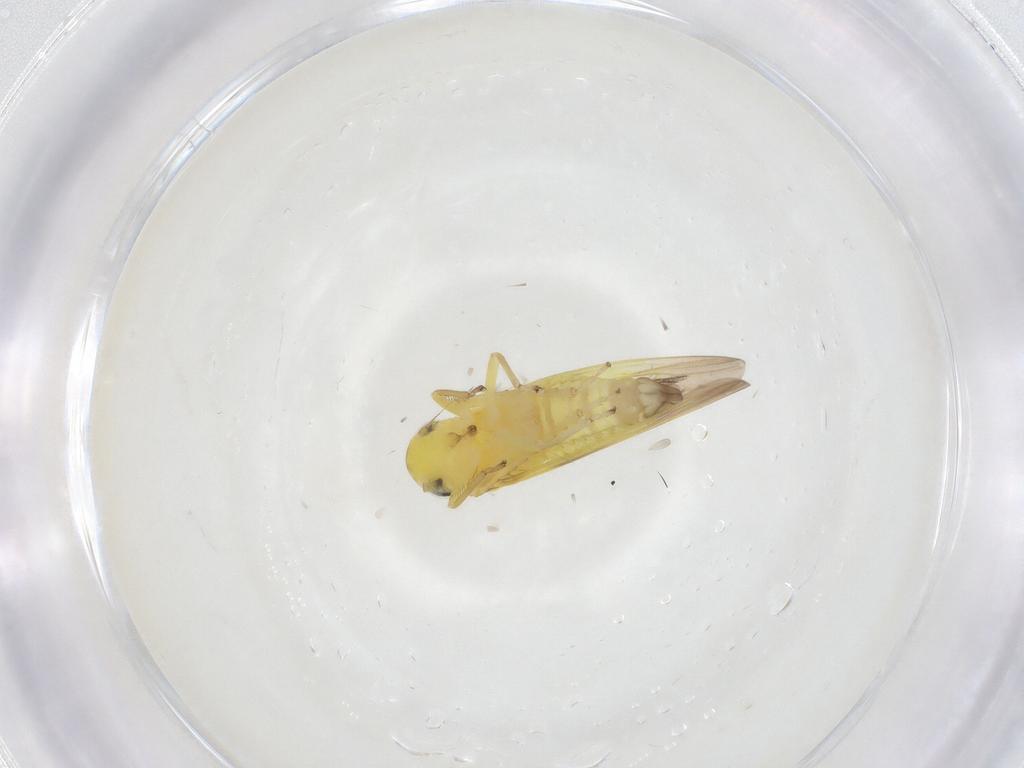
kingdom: Animalia
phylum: Arthropoda
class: Insecta
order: Hemiptera
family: Cicadellidae
